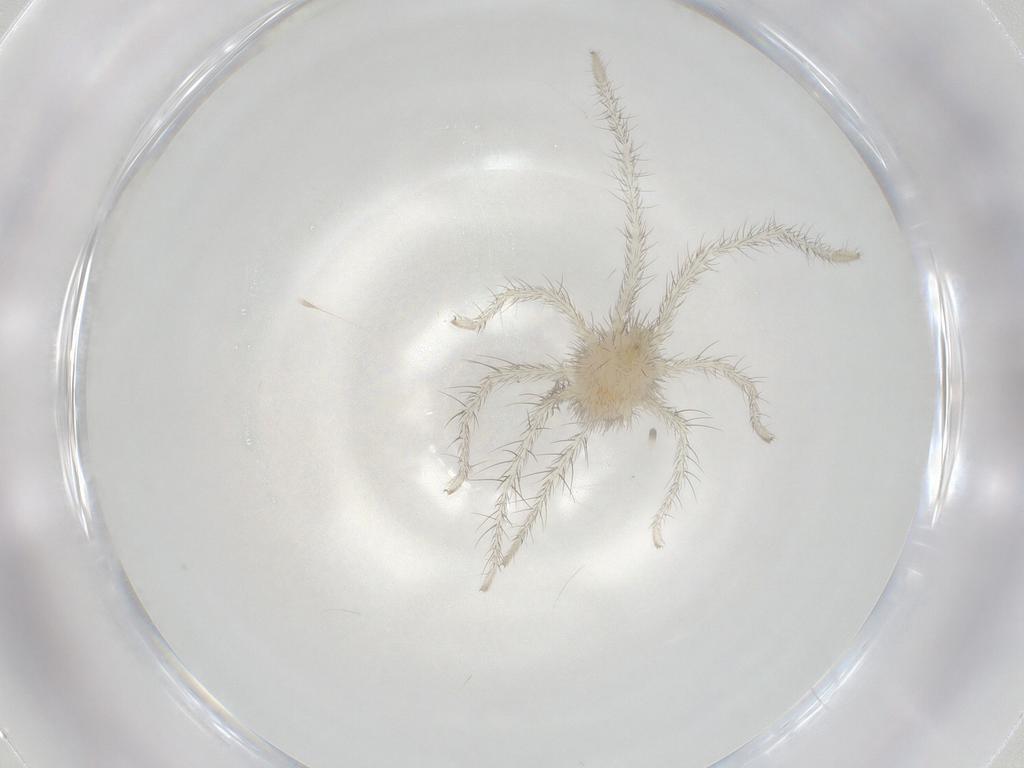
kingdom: Animalia
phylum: Arthropoda
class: Arachnida
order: Trombidiformes
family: Erythraeidae
